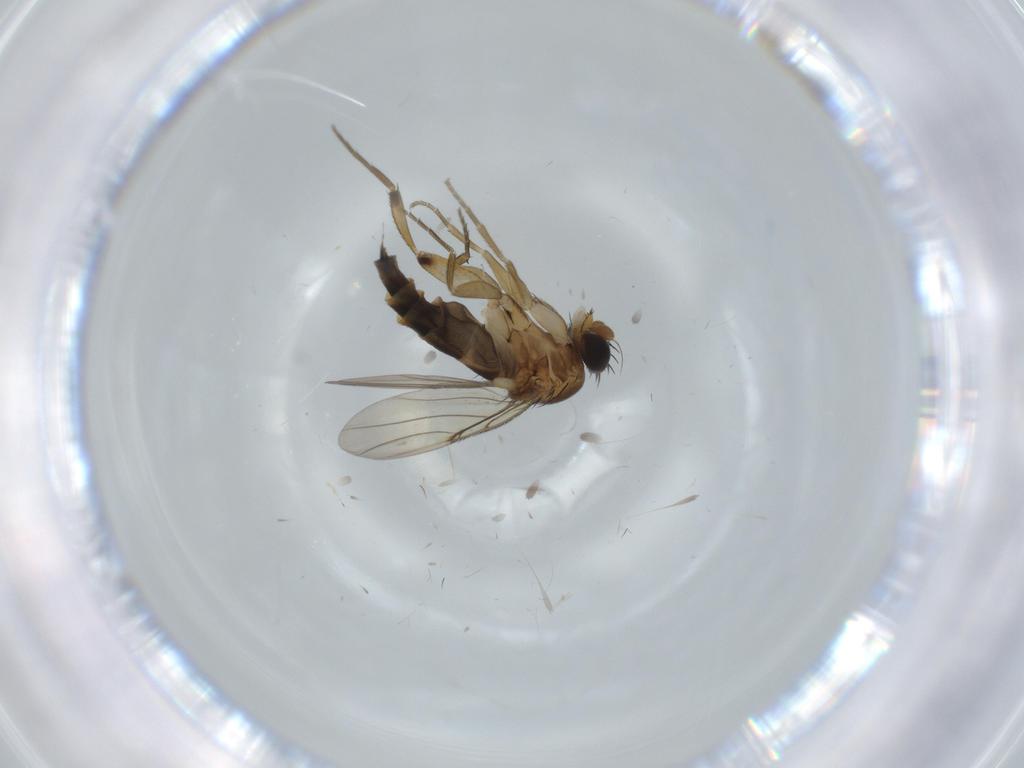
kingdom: Animalia
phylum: Arthropoda
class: Insecta
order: Diptera
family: Phoridae
